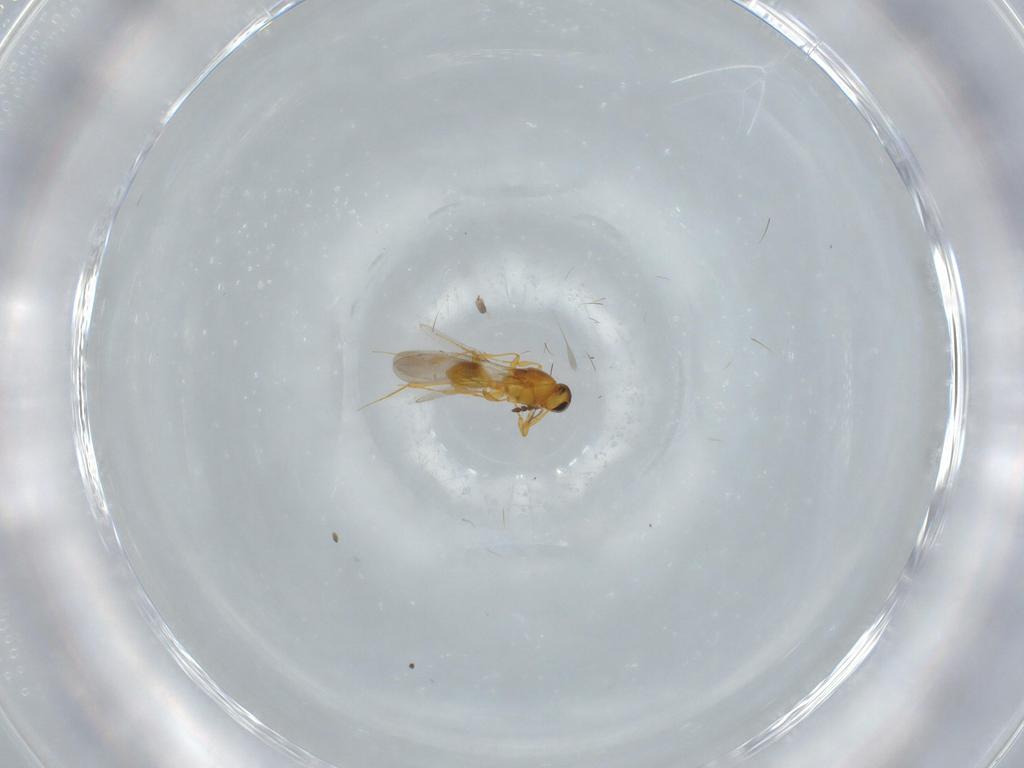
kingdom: Animalia
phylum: Arthropoda
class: Insecta
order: Hymenoptera
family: Platygastridae
